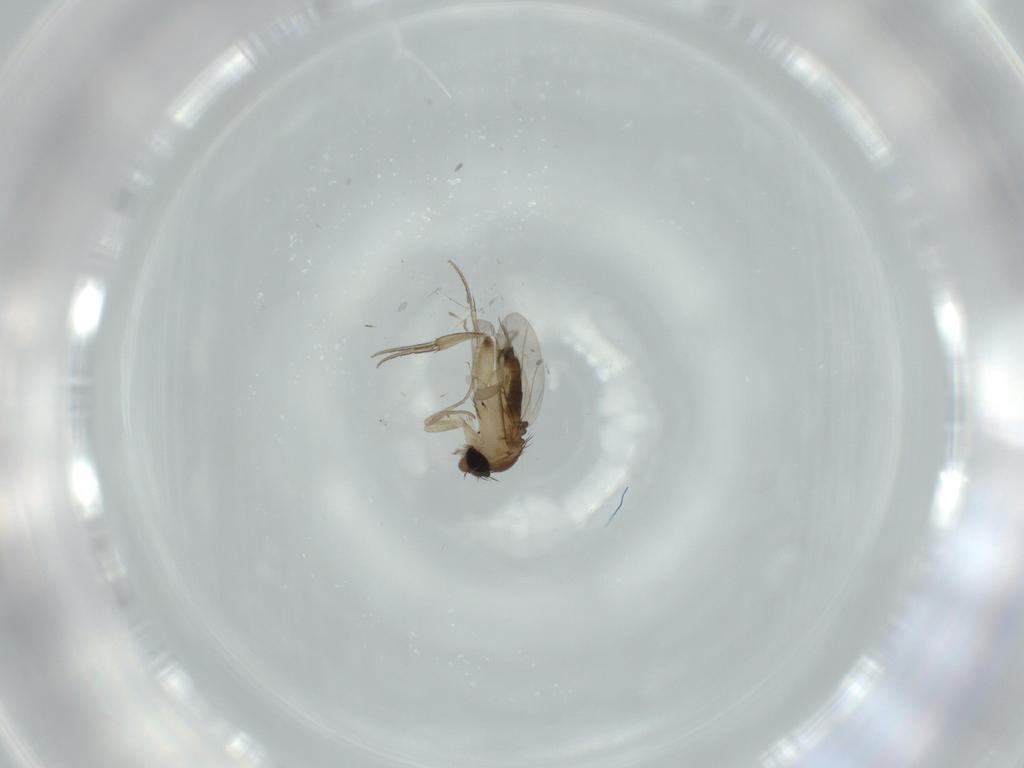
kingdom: Animalia
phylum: Arthropoda
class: Insecta
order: Diptera
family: Phoridae
